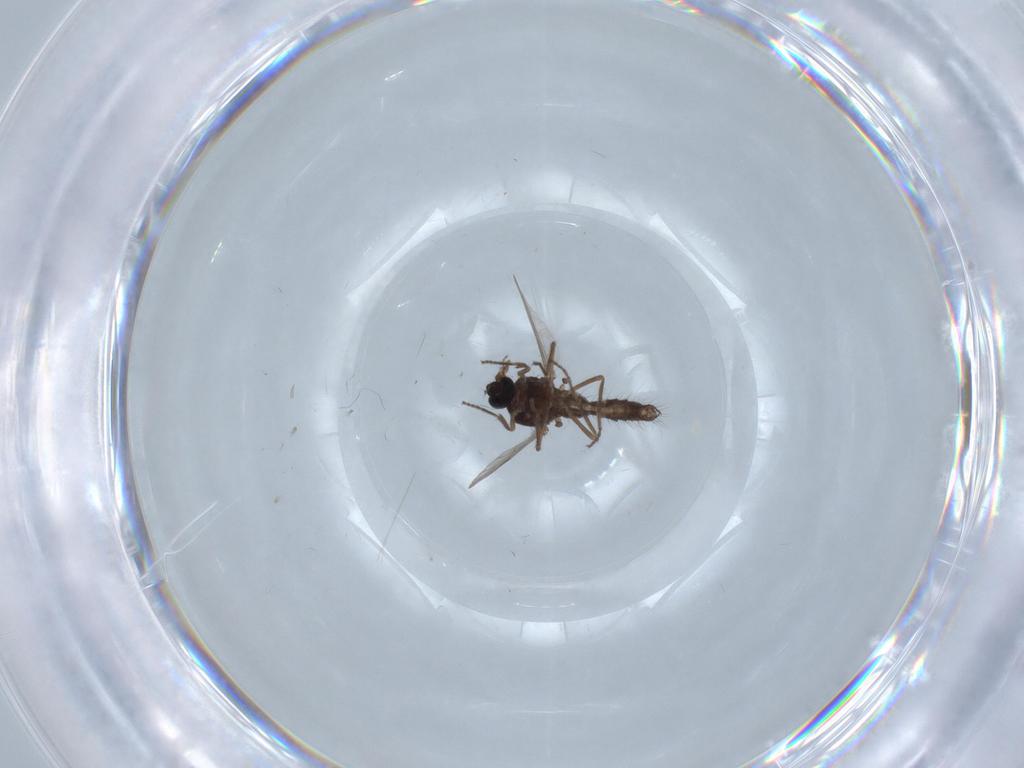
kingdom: Animalia
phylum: Arthropoda
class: Insecta
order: Diptera
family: Ceratopogonidae
